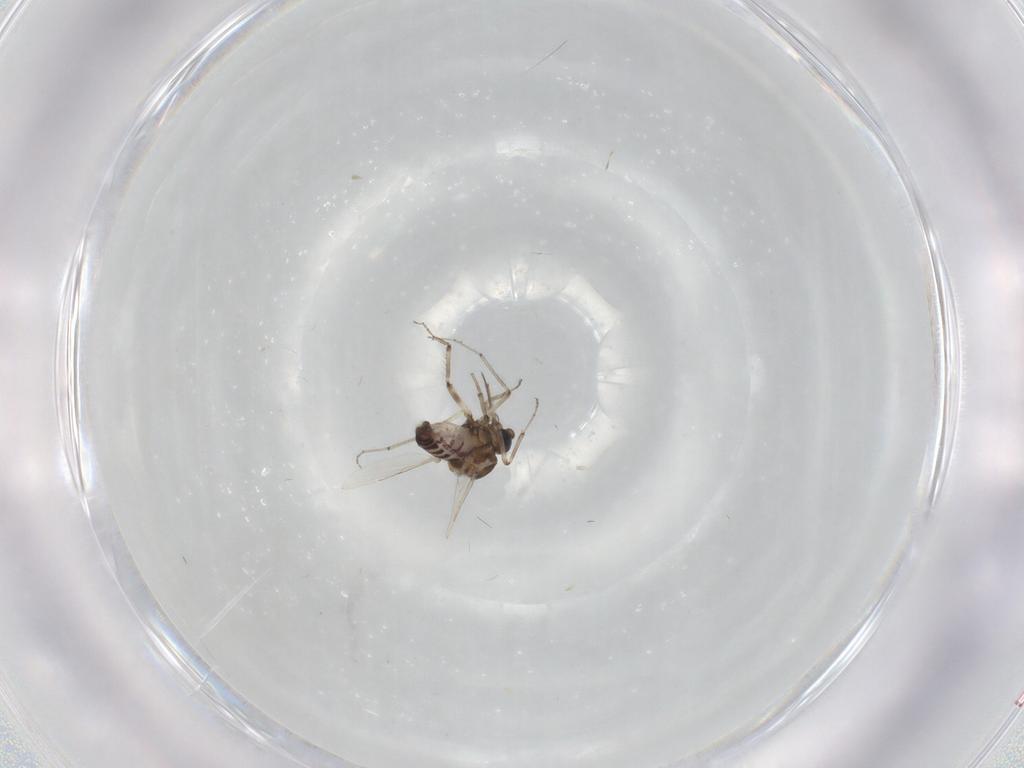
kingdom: Animalia
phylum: Arthropoda
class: Insecta
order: Diptera
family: Ceratopogonidae
